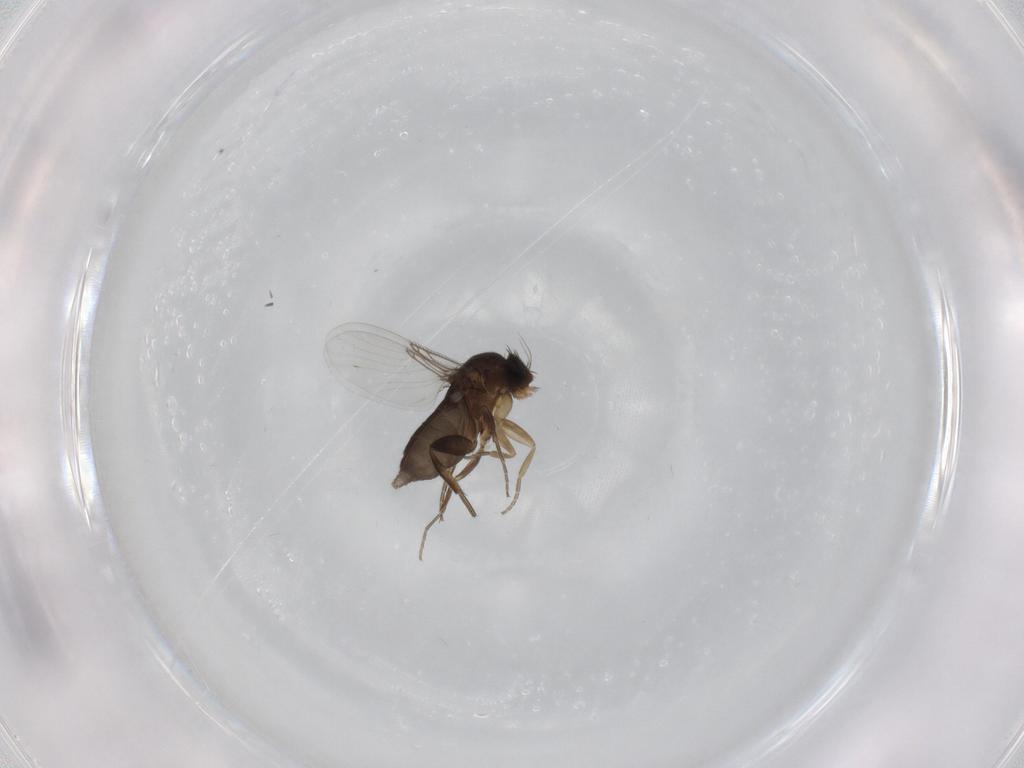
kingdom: Animalia
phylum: Arthropoda
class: Insecta
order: Diptera
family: Phoridae
